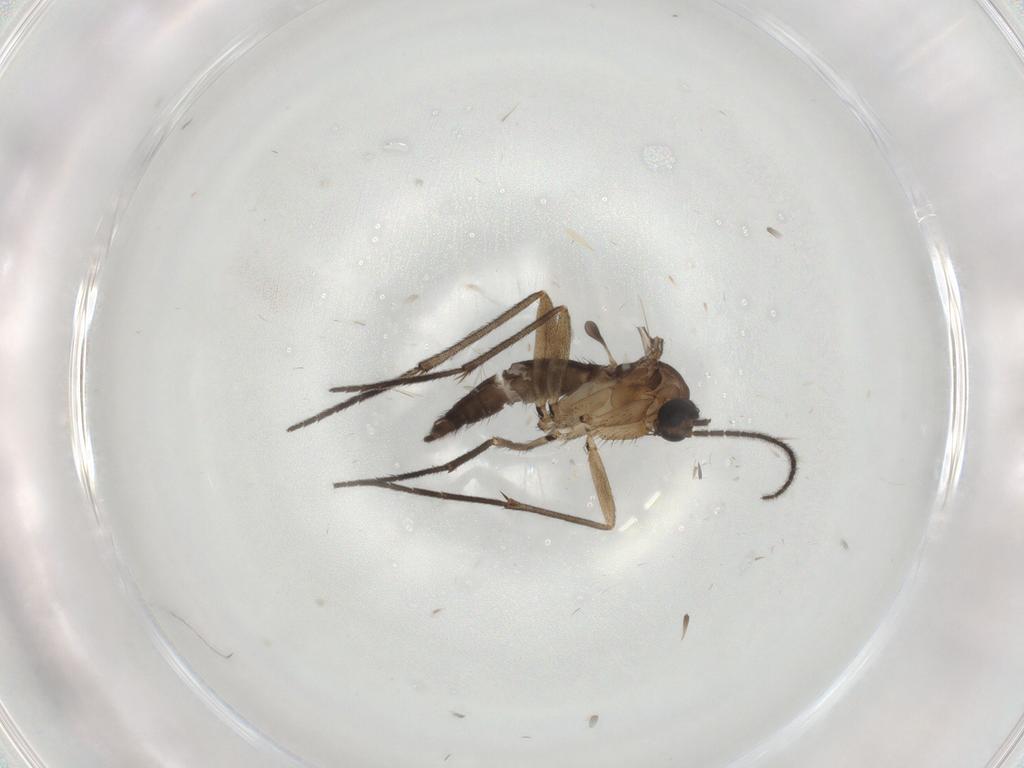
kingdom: Animalia
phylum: Arthropoda
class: Insecta
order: Diptera
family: Sciaridae
